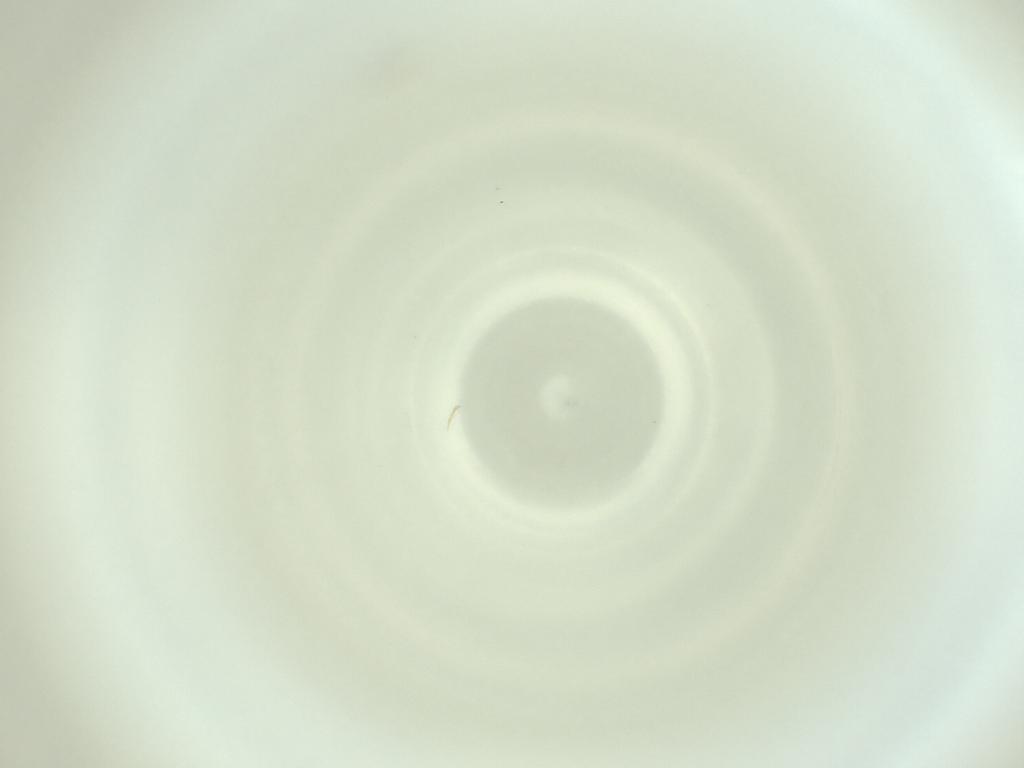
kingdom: Animalia
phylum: Arthropoda
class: Insecta
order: Diptera
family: Cecidomyiidae
